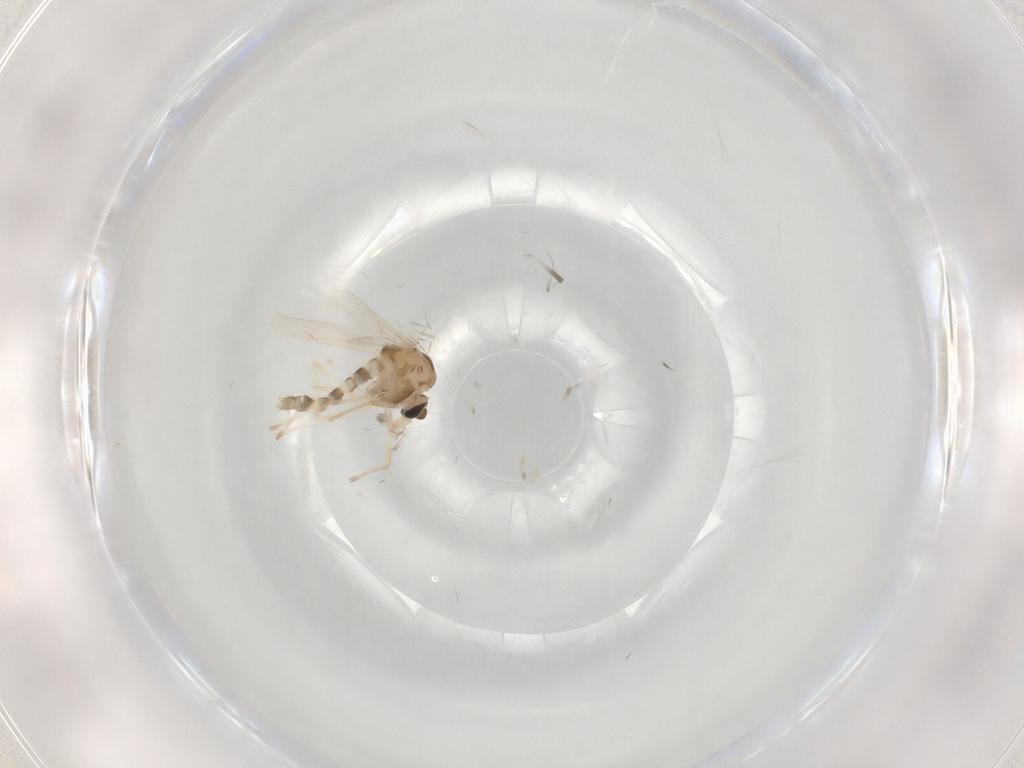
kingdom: Animalia
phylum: Arthropoda
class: Insecta
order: Diptera
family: Chironomidae
